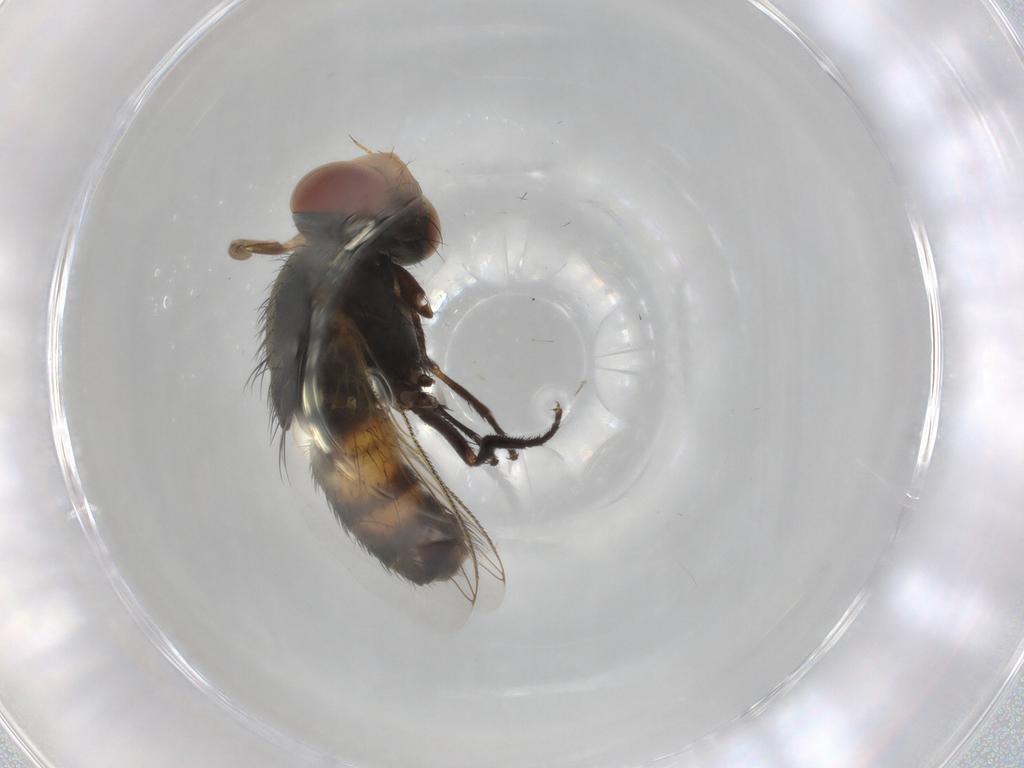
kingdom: Animalia
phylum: Arthropoda
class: Insecta
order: Diptera
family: Sarcophagidae
